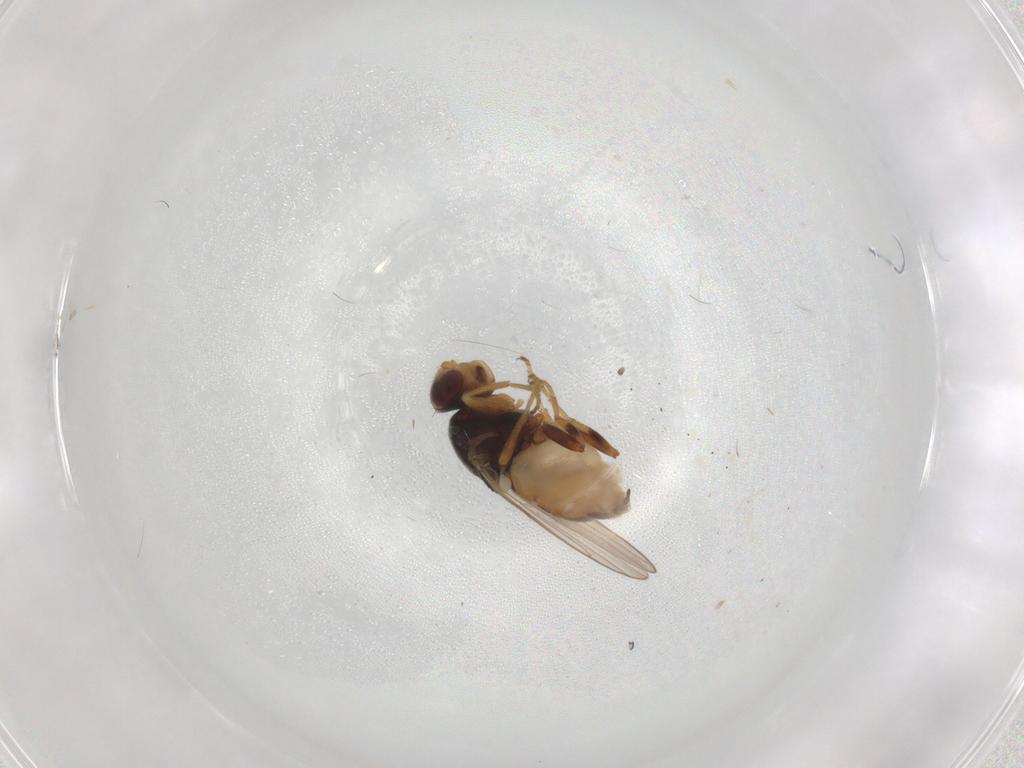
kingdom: Animalia
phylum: Arthropoda
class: Insecta
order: Diptera
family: Chloropidae
